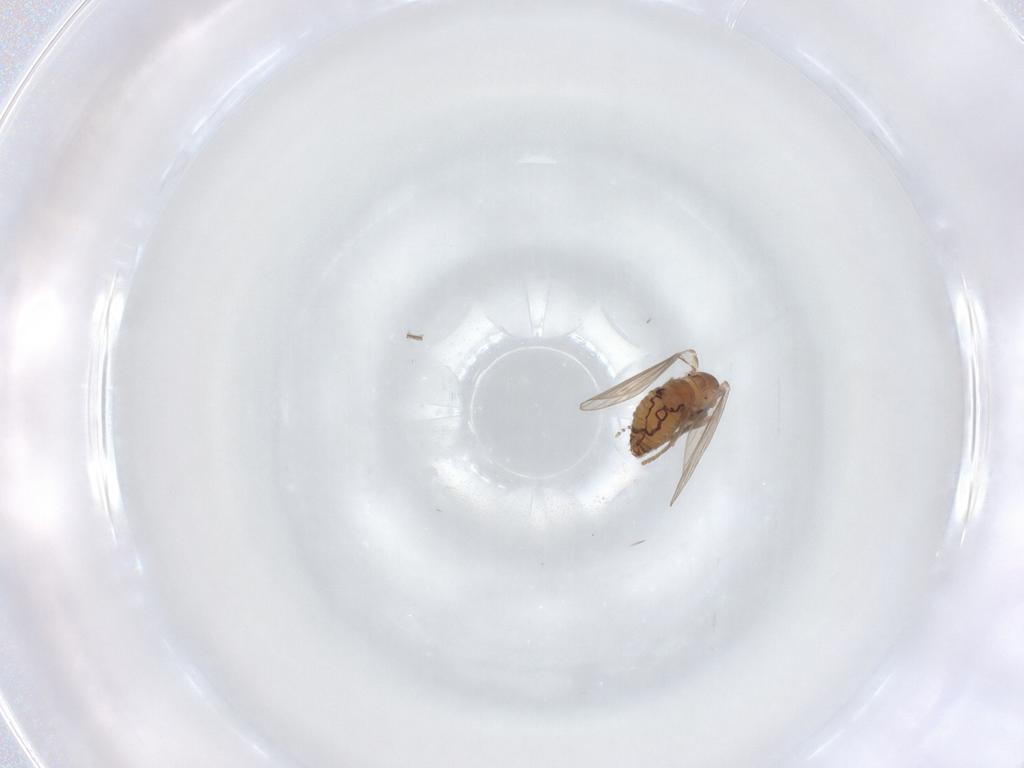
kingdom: Animalia
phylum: Arthropoda
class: Insecta
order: Diptera
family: Psychodidae
